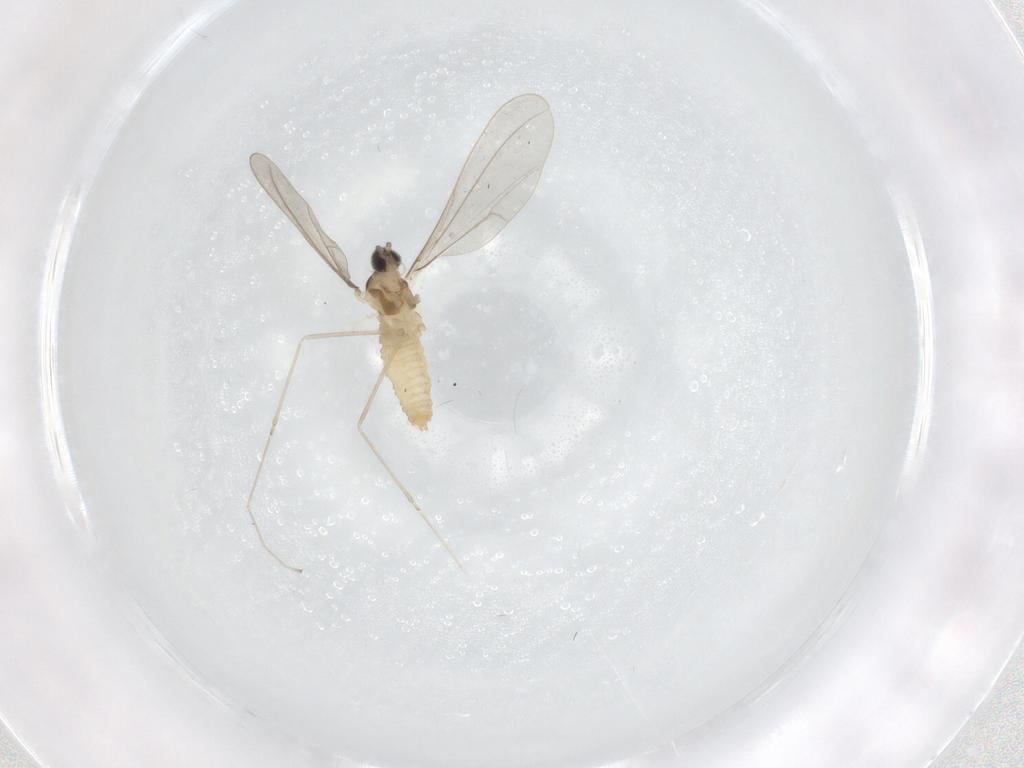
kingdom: Animalia
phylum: Arthropoda
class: Insecta
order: Diptera
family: Cecidomyiidae
